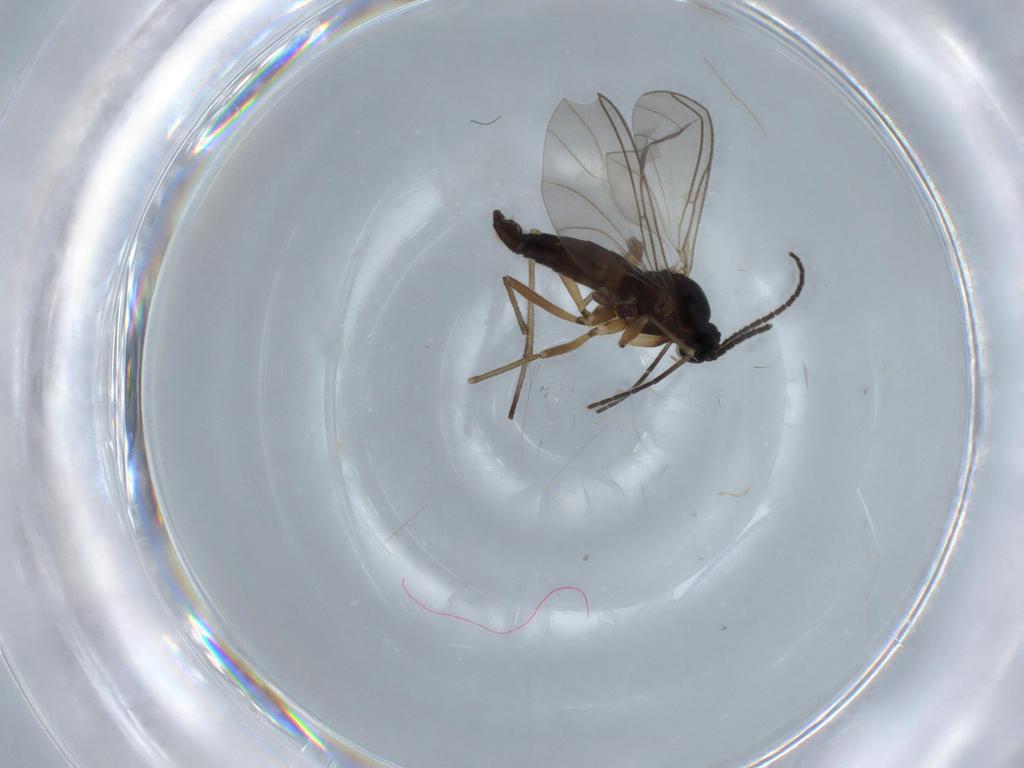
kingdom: Animalia
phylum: Arthropoda
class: Insecta
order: Diptera
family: Sciaridae
